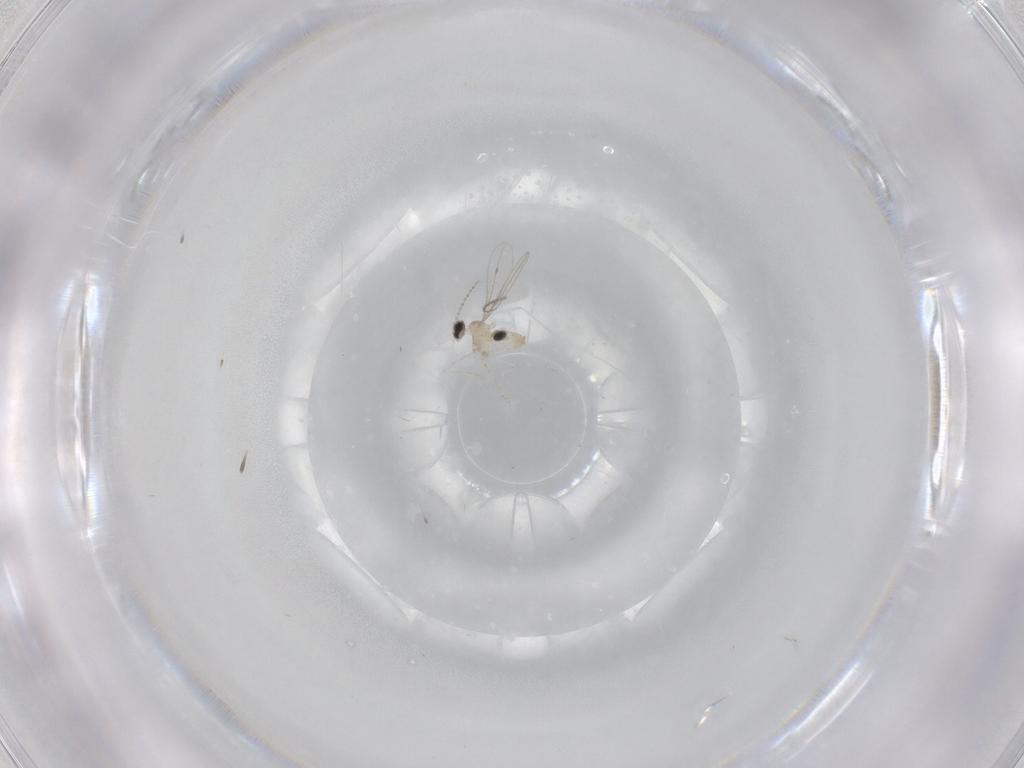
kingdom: Animalia
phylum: Arthropoda
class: Insecta
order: Diptera
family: Cecidomyiidae
